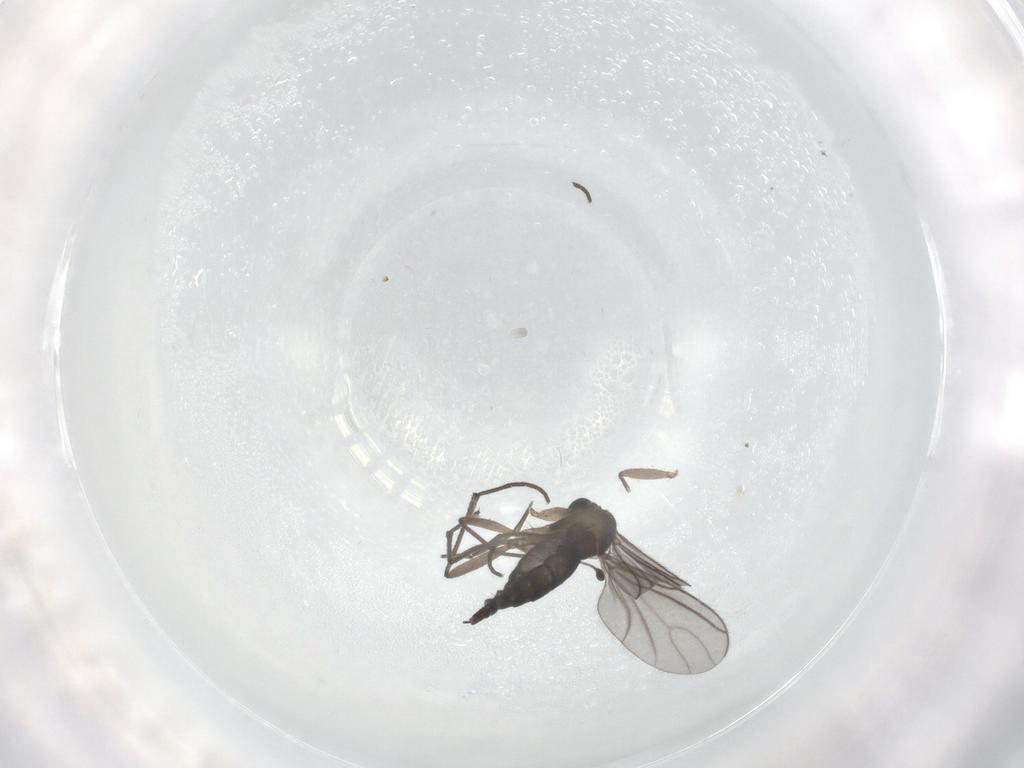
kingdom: Animalia
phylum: Arthropoda
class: Insecta
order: Diptera
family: Sciaridae
